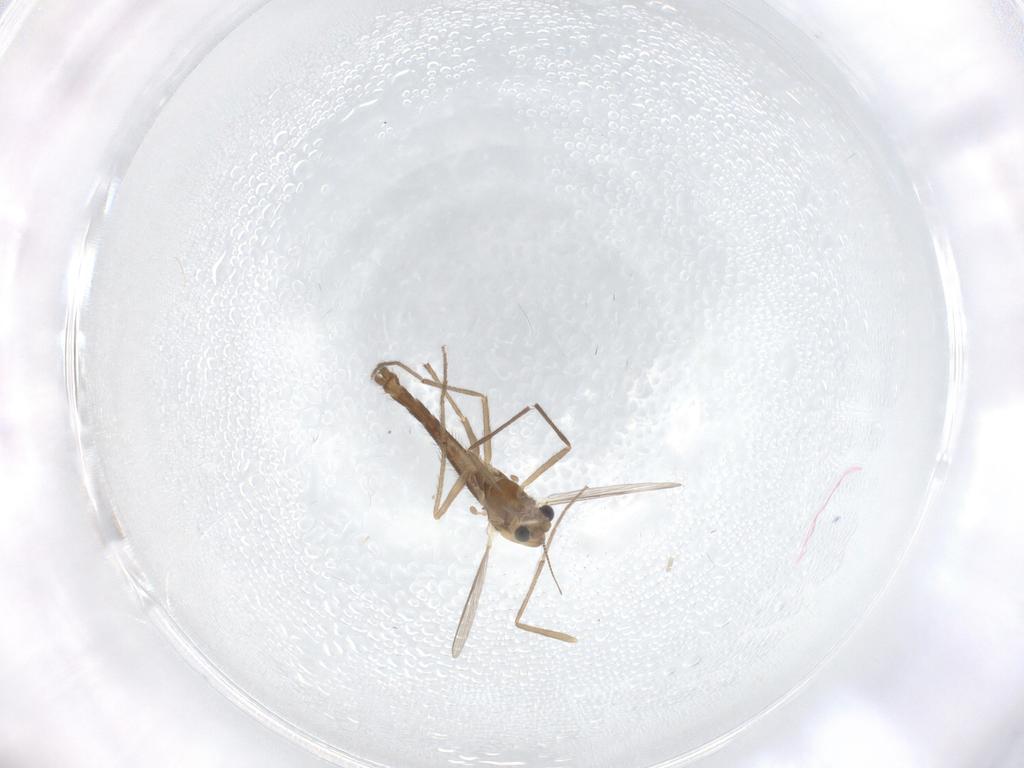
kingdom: Animalia
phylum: Arthropoda
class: Insecta
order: Diptera
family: Chironomidae
